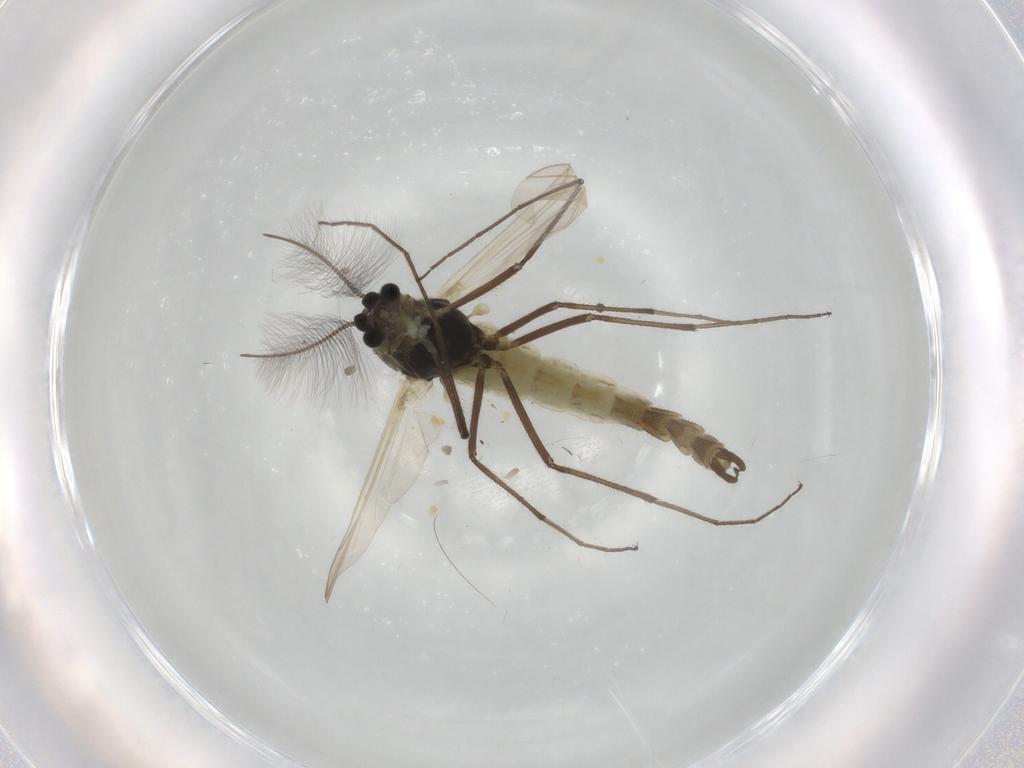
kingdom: Animalia
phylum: Arthropoda
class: Insecta
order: Diptera
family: Chironomidae
